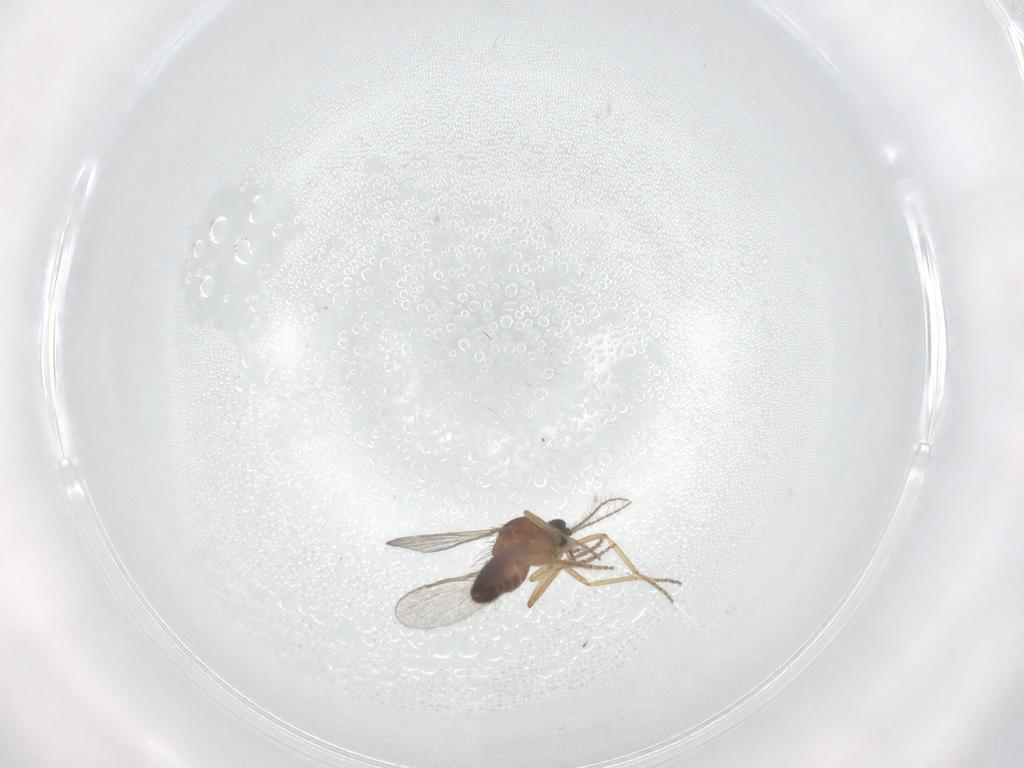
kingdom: Animalia
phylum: Arthropoda
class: Insecta
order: Diptera
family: Ceratopogonidae
